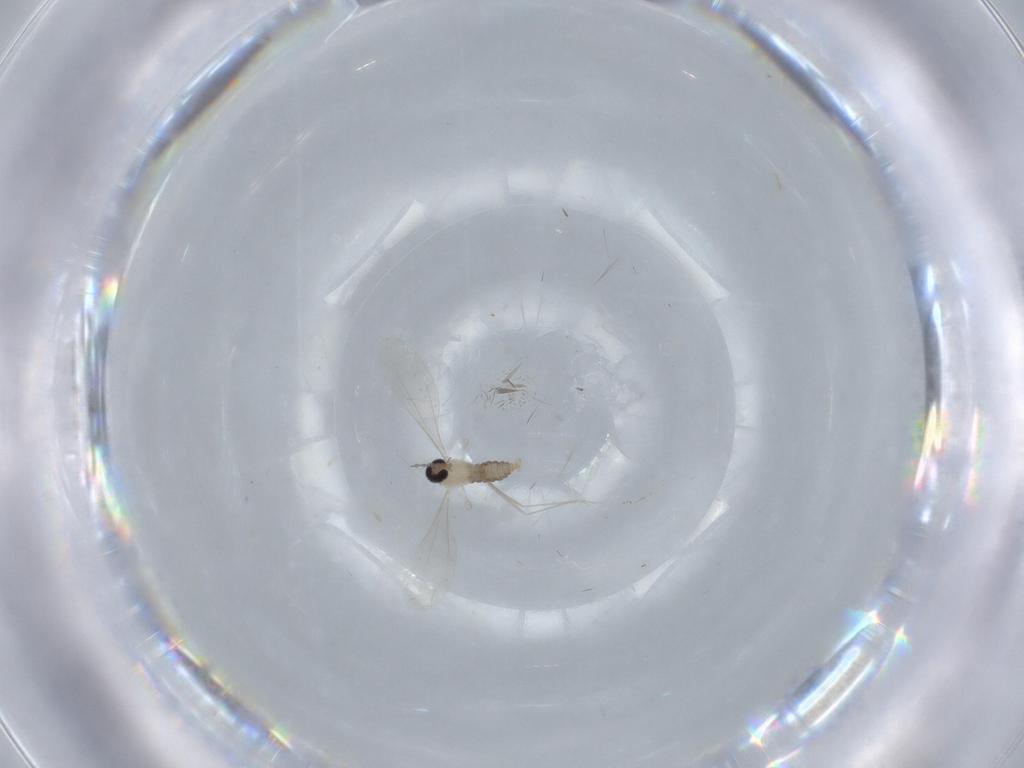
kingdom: Animalia
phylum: Arthropoda
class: Insecta
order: Diptera
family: Cecidomyiidae
